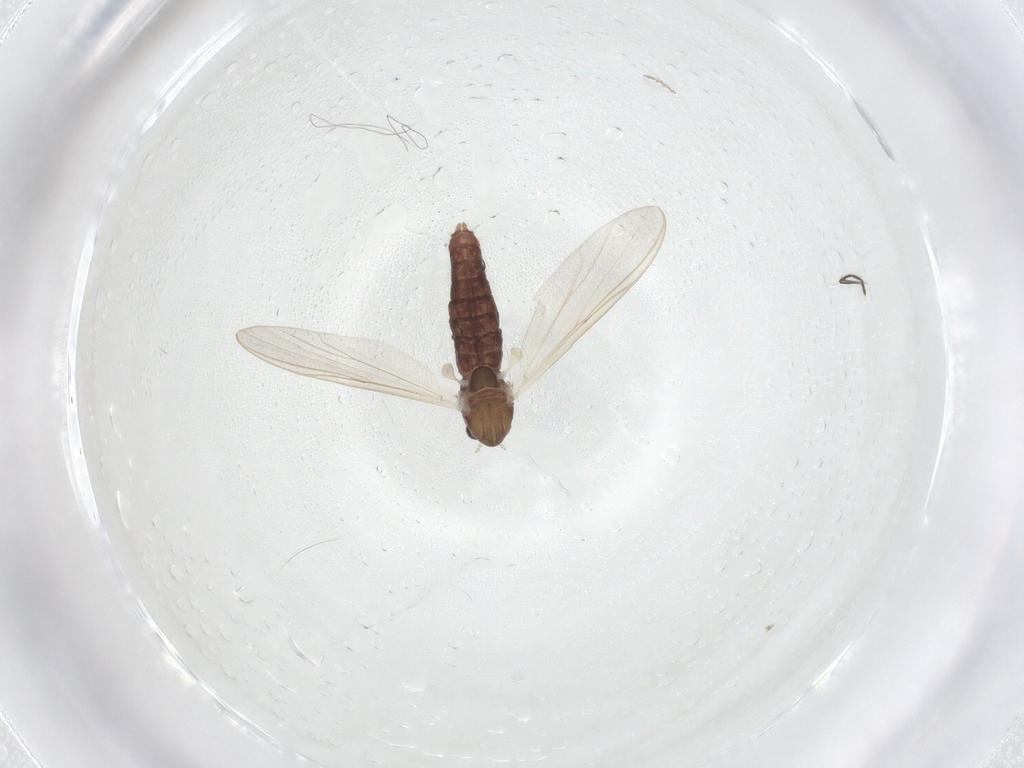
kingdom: Animalia
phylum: Arthropoda
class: Insecta
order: Diptera
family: Chironomidae
